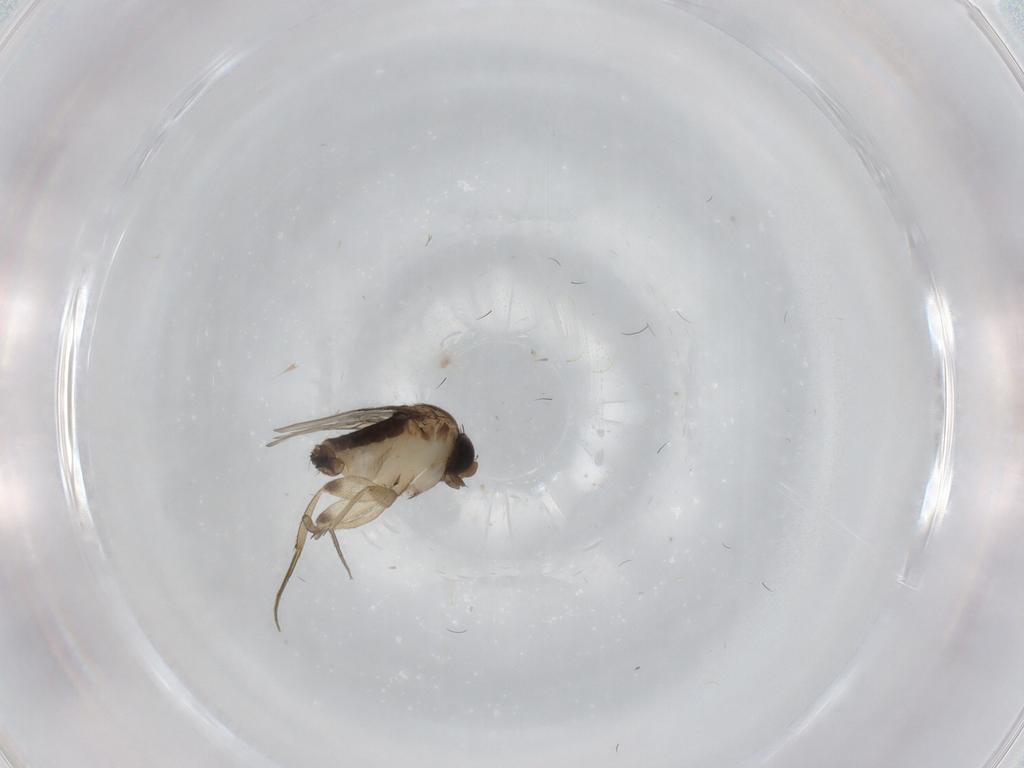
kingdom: Animalia
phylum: Arthropoda
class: Insecta
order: Diptera
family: Phoridae
